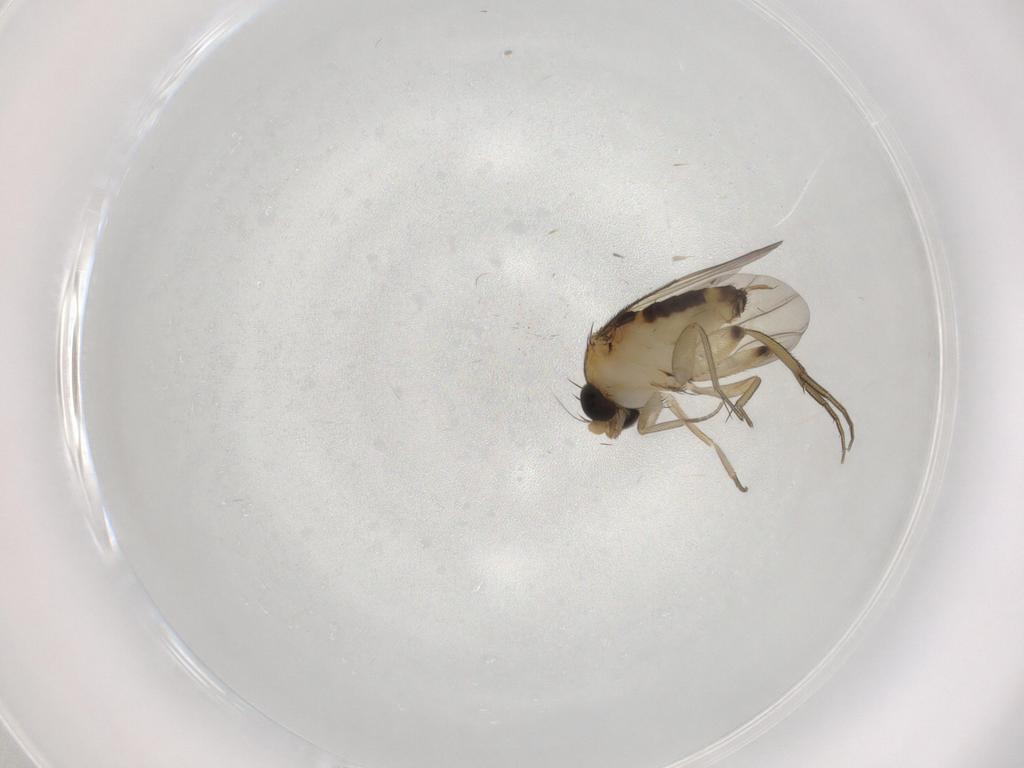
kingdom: Animalia
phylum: Arthropoda
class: Insecta
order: Diptera
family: Phoridae
